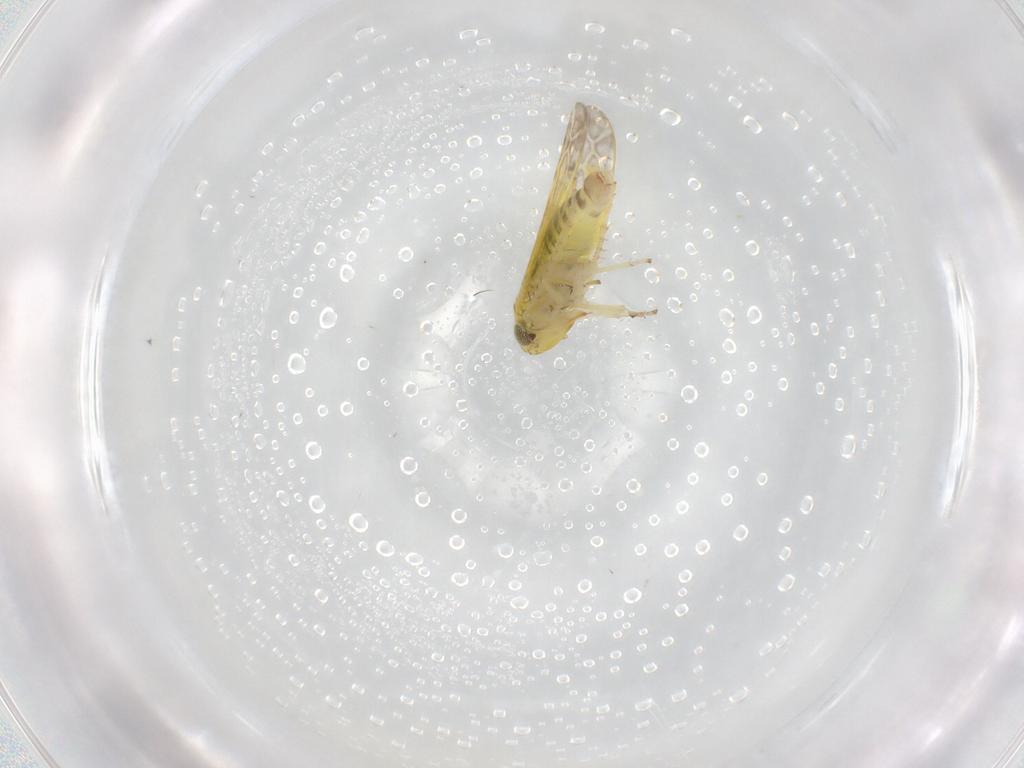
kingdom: Animalia
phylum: Arthropoda
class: Insecta
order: Hemiptera
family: Cicadellidae
